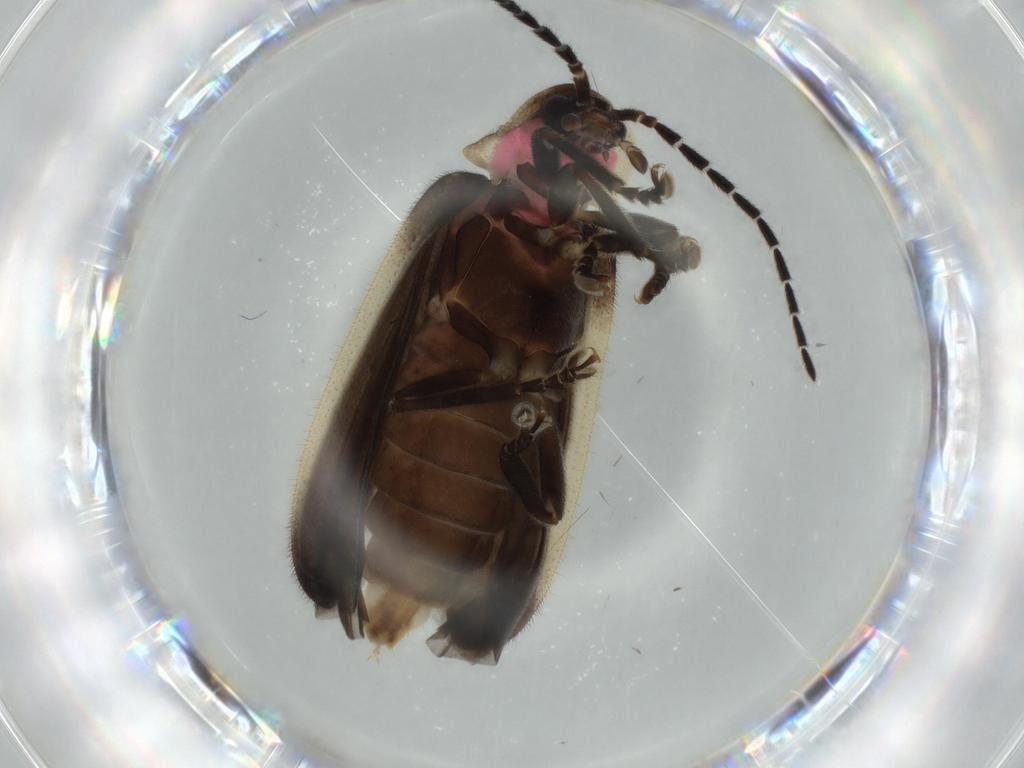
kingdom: Animalia
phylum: Arthropoda
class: Insecta
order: Coleoptera
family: Lampyridae
